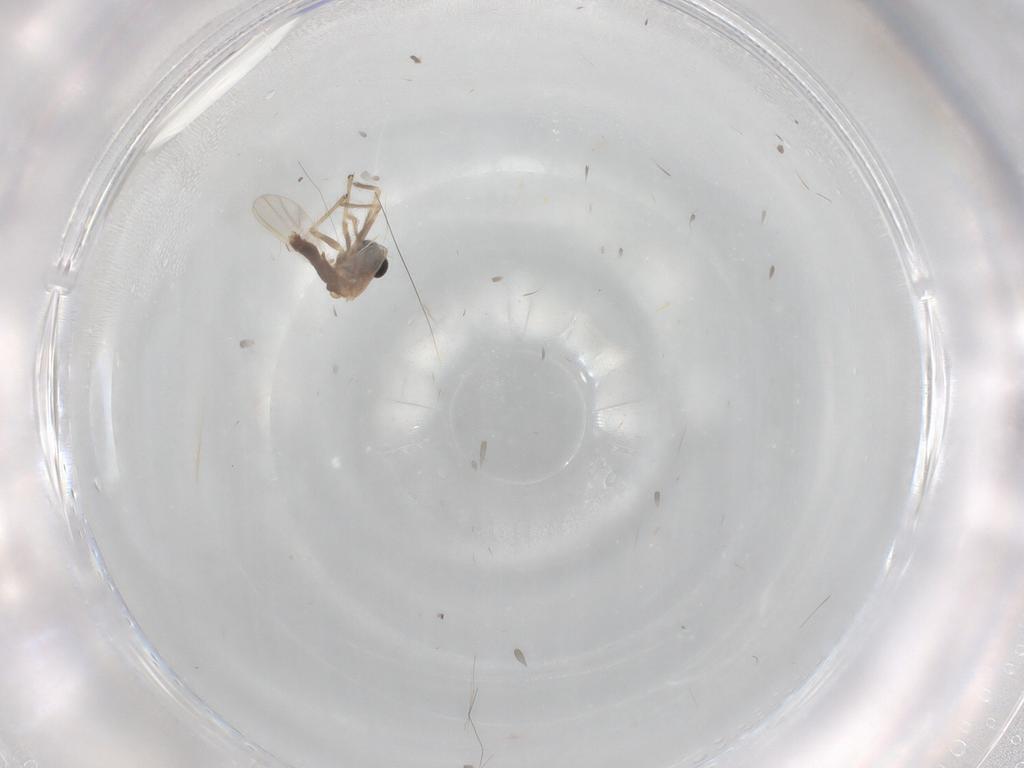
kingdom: Animalia
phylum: Arthropoda
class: Insecta
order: Diptera
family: Chironomidae
